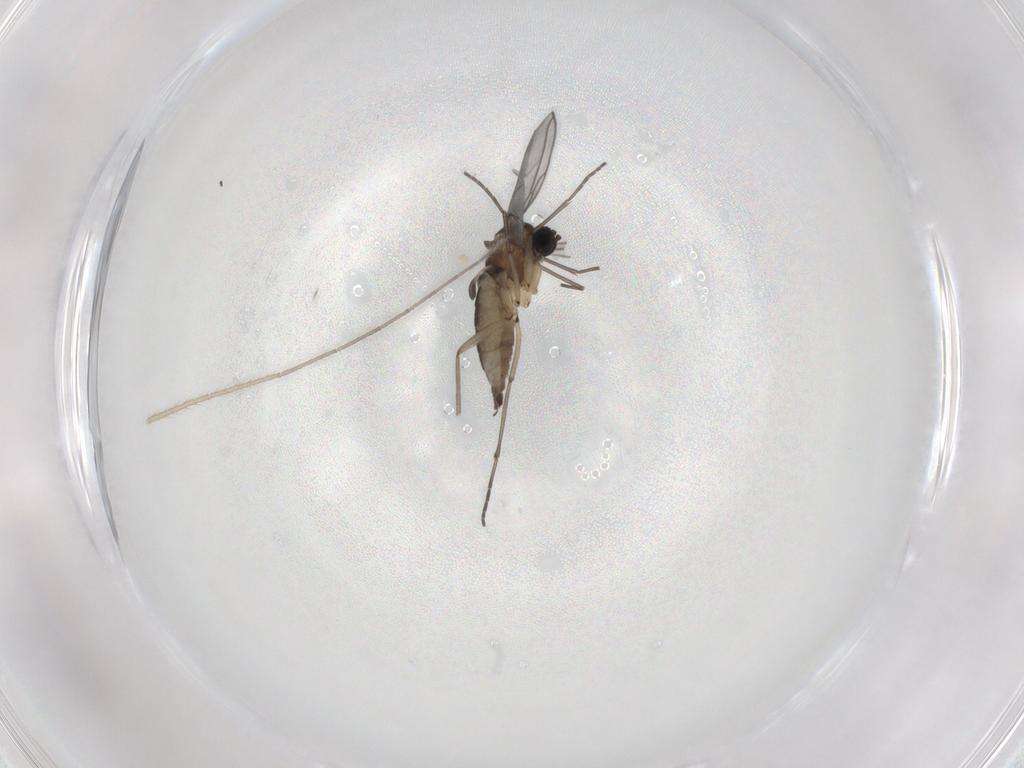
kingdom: Animalia
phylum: Arthropoda
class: Insecta
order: Diptera
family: Sciaridae
